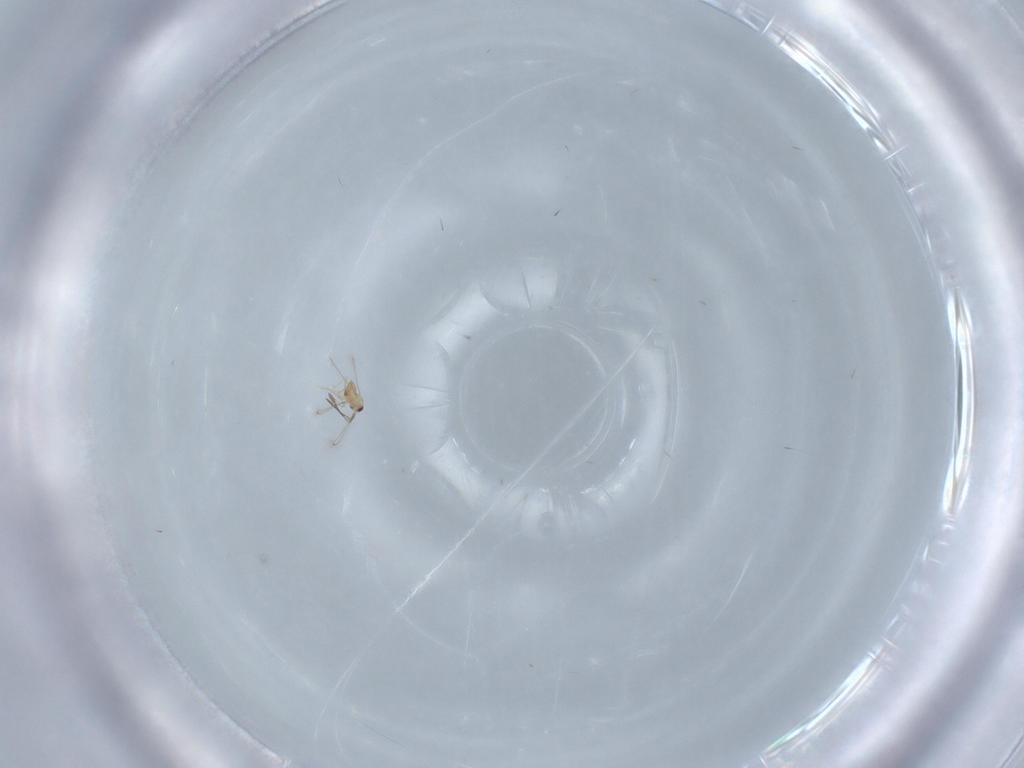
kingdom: Animalia
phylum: Arthropoda
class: Insecta
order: Hymenoptera
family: Mymaridae
